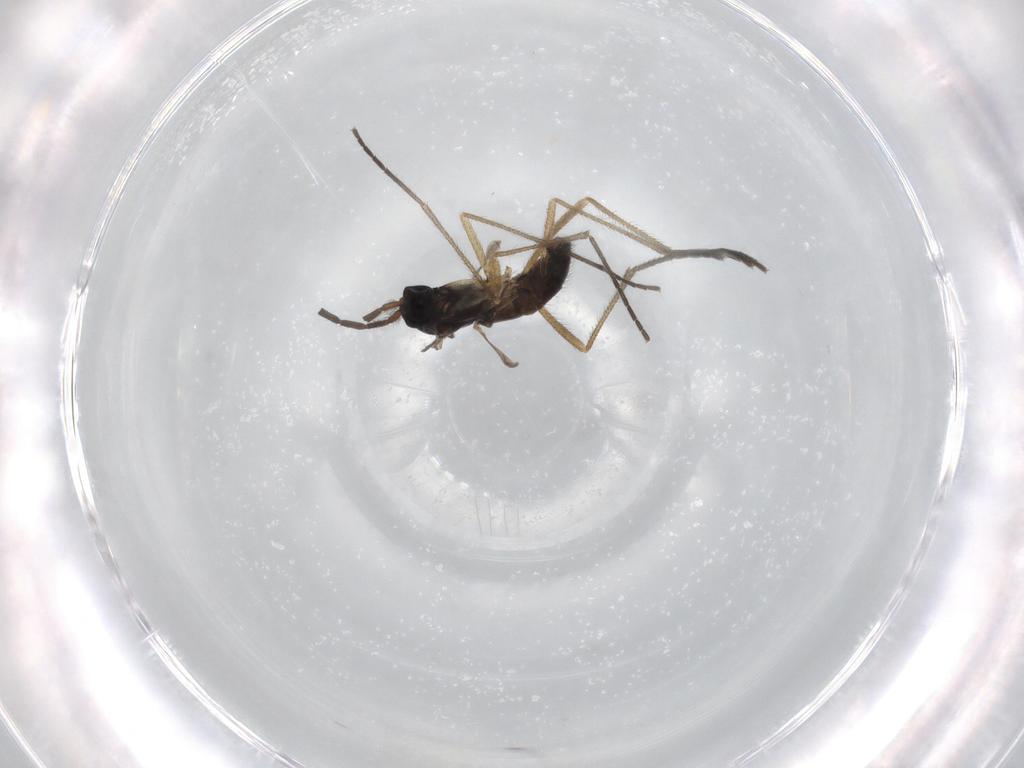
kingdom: Animalia
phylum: Arthropoda
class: Insecta
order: Diptera
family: Sciaridae
